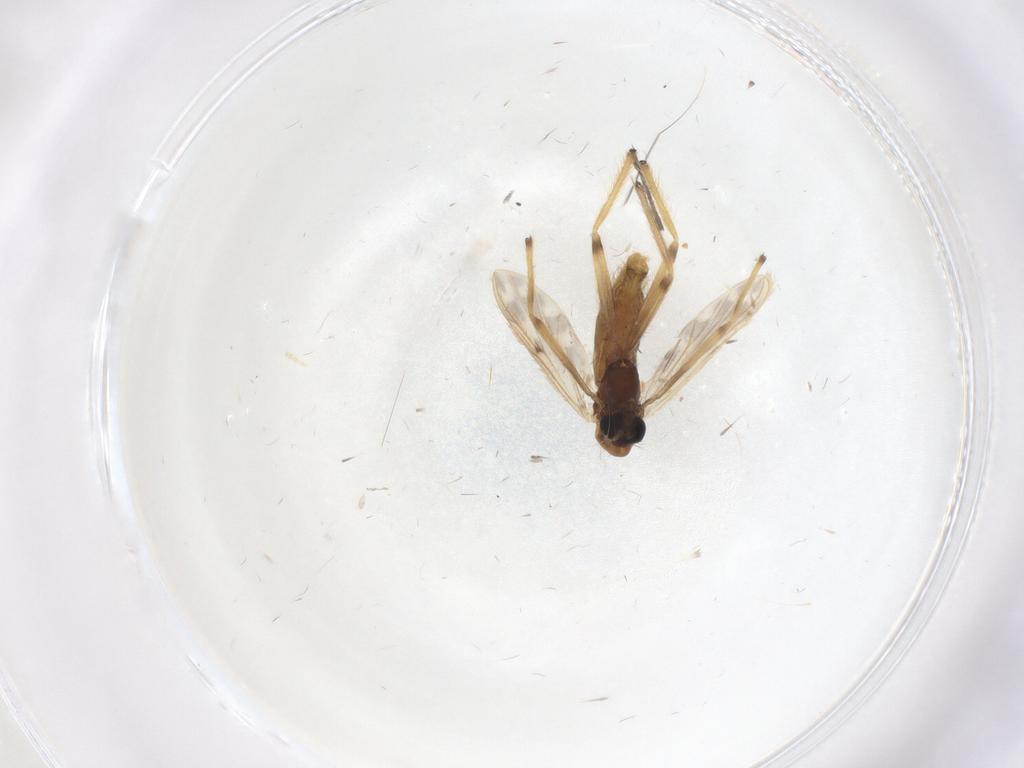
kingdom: Animalia
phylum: Arthropoda
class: Insecta
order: Diptera
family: Chironomidae
